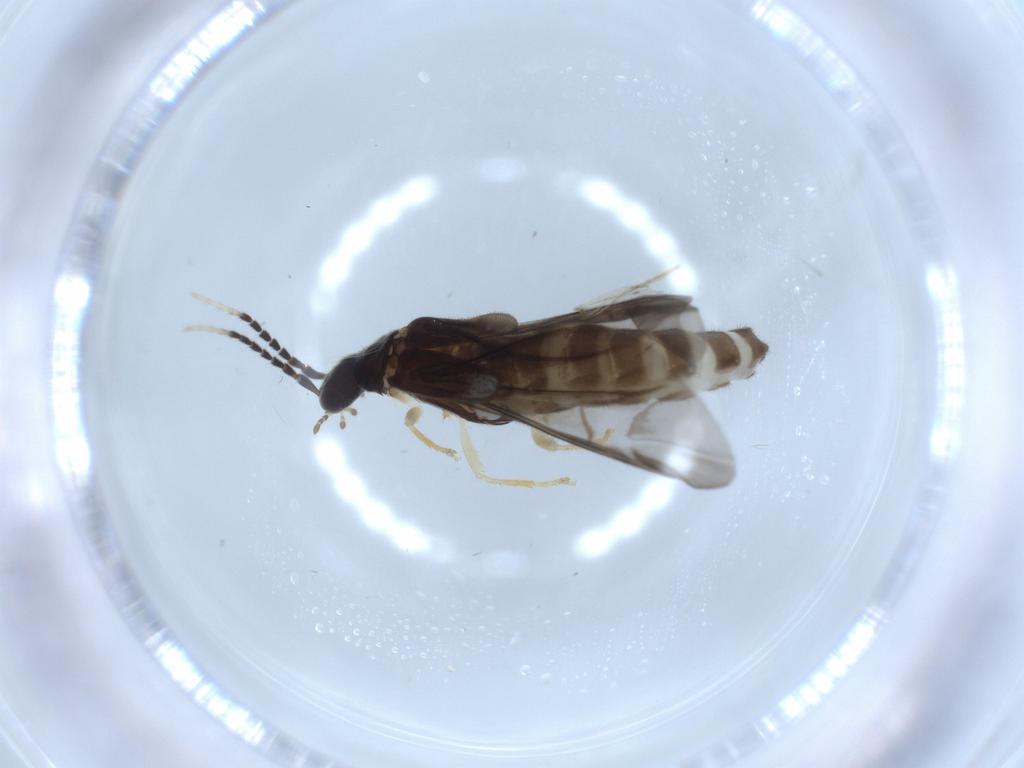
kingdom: Animalia
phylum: Arthropoda
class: Insecta
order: Coleoptera
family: Cantharidae
